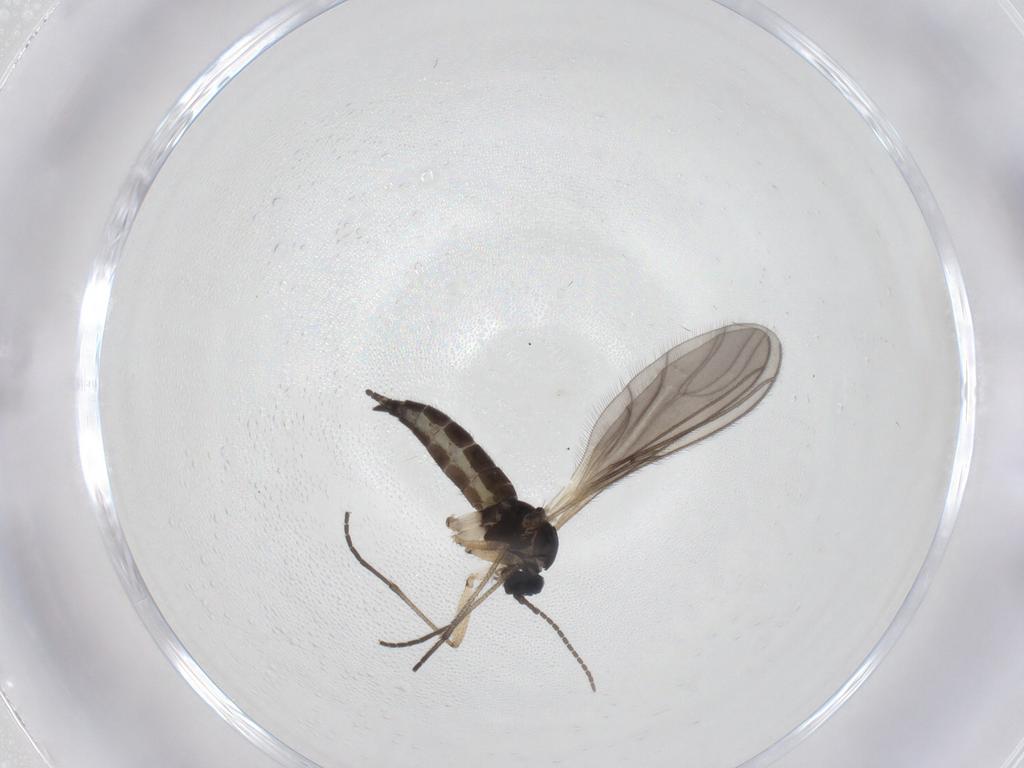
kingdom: Animalia
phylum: Arthropoda
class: Insecta
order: Diptera
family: Sciaridae
